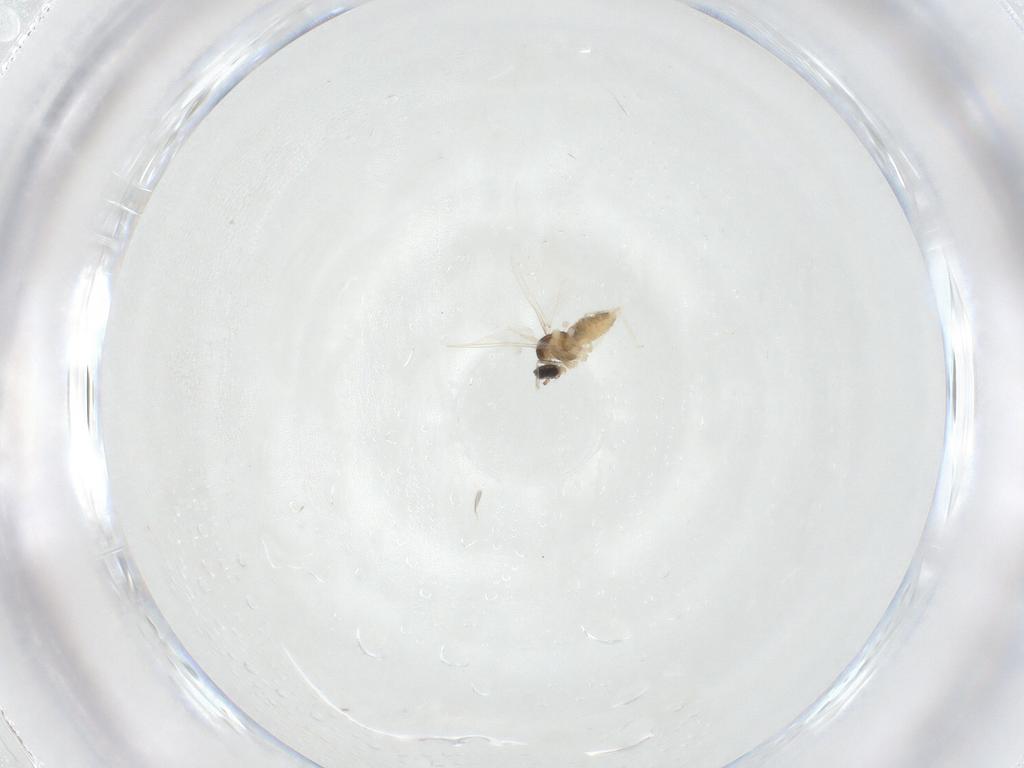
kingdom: Animalia
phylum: Arthropoda
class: Insecta
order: Diptera
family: Cecidomyiidae
